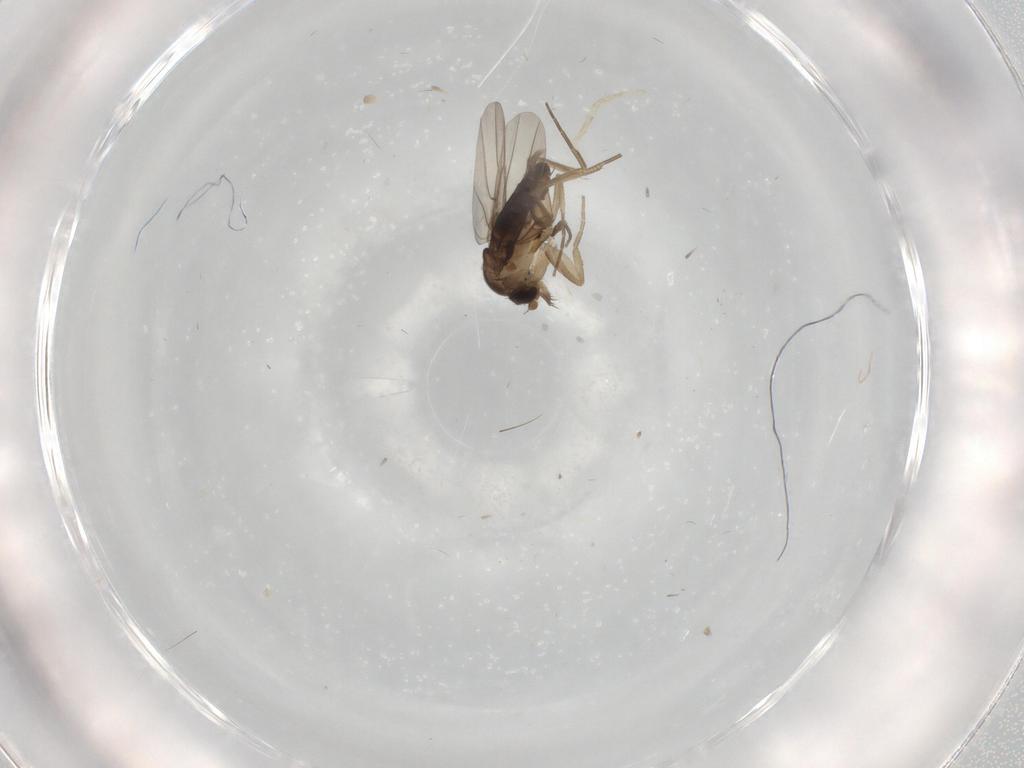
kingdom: Animalia
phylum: Arthropoda
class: Insecta
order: Diptera
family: Phoridae
